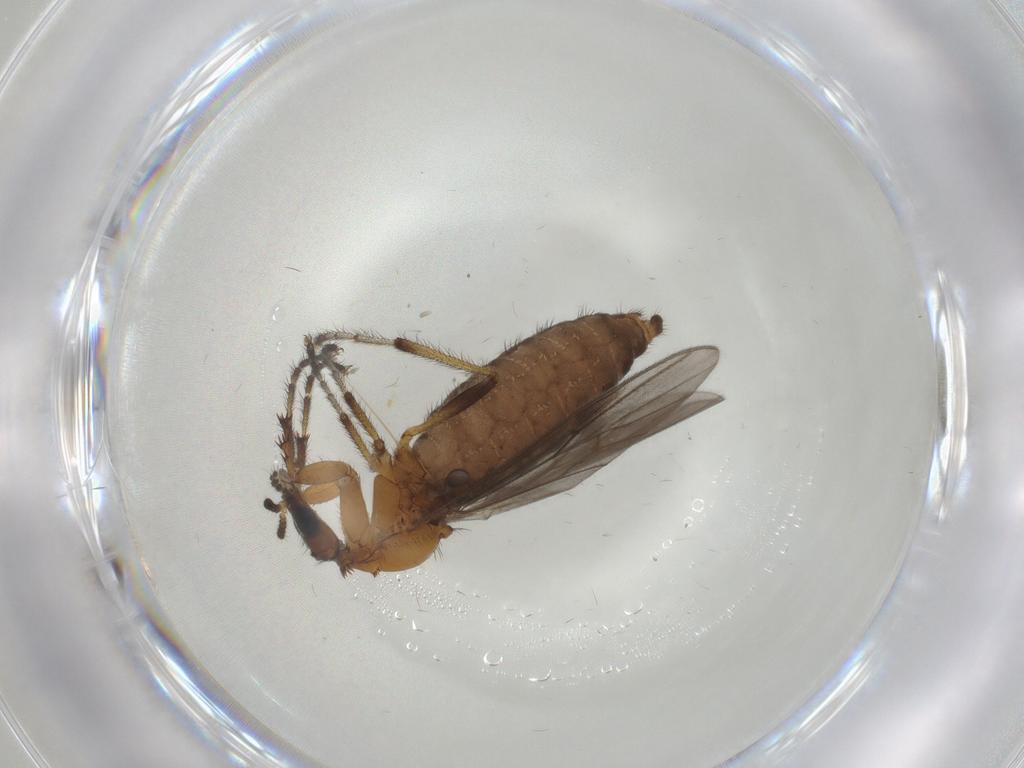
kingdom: Animalia
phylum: Arthropoda
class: Insecta
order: Diptera
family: Bibionidae
